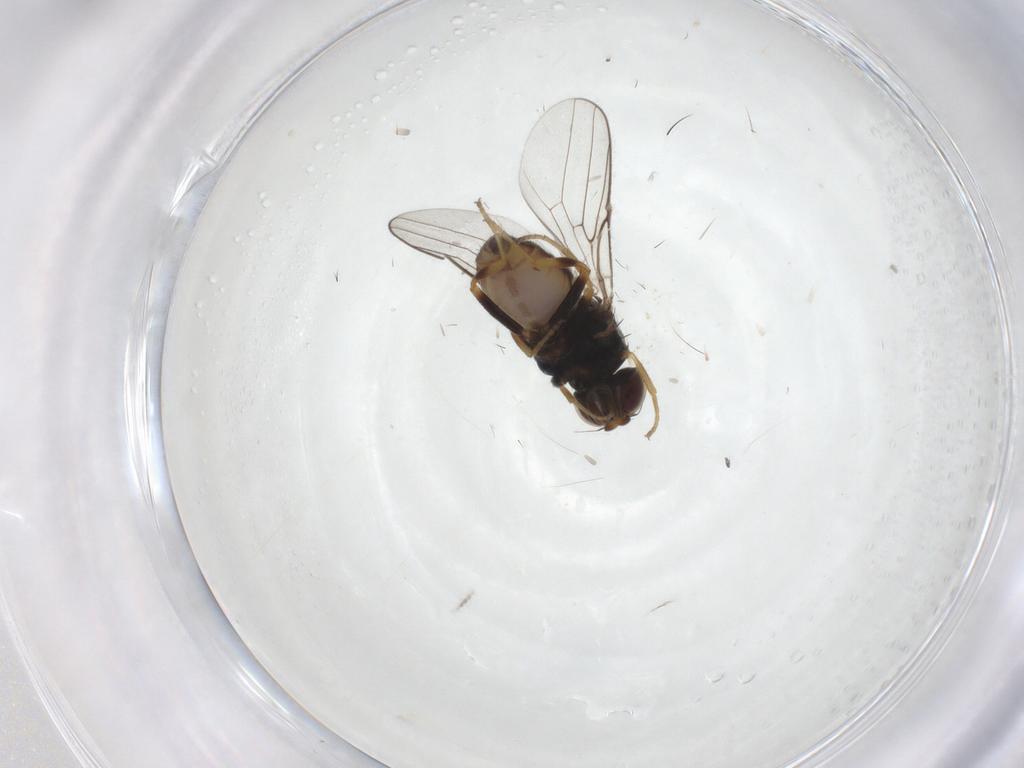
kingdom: Animalia
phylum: Arthropoda
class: Insecta
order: Diptera
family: Chloropidae
